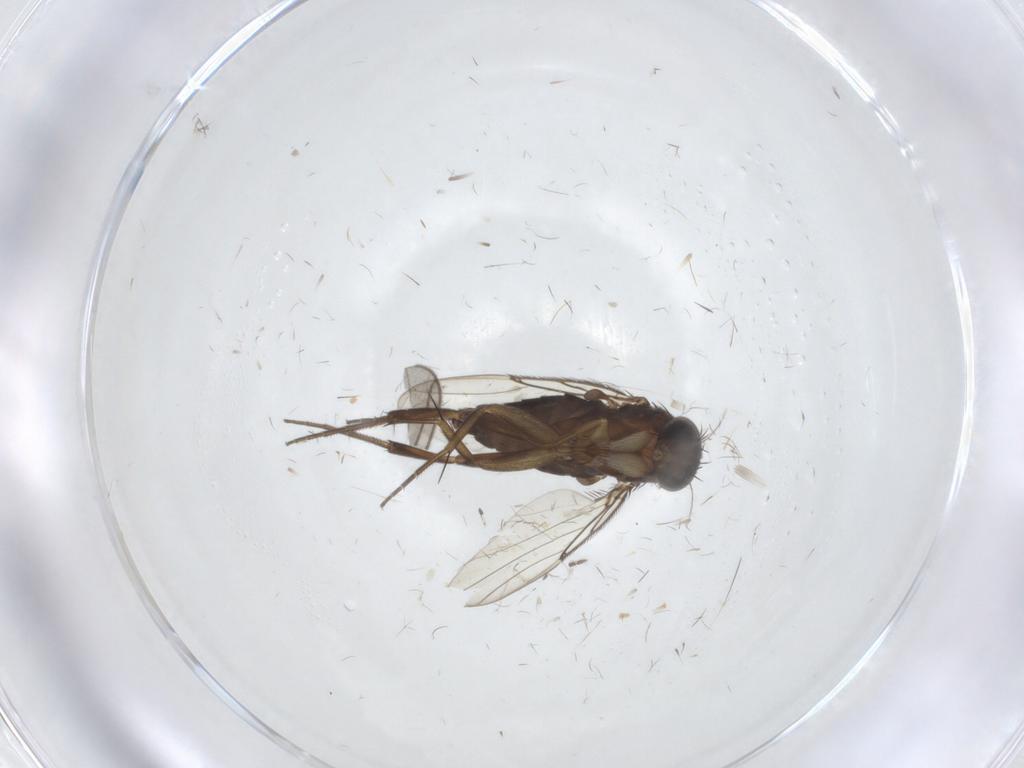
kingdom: Animalia
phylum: Arthropoda
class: Insecta
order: Diptera
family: Phoridae
